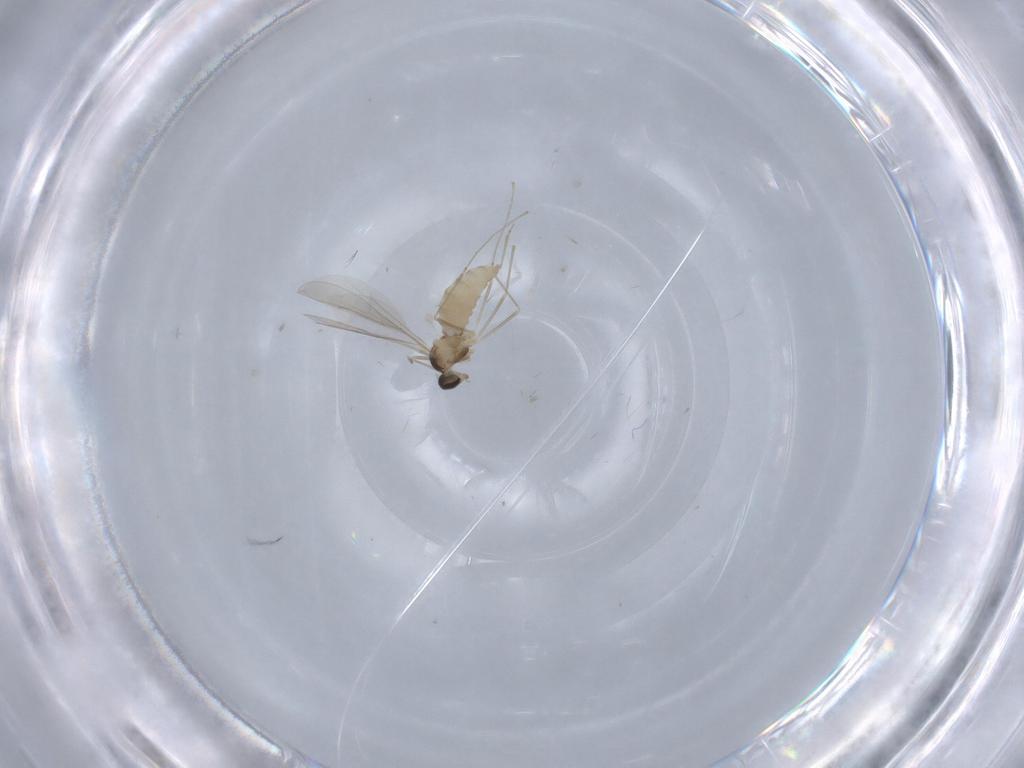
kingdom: Animalia
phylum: Arthropoda
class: Insecta
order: Diptera
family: Cecidomyiidae
